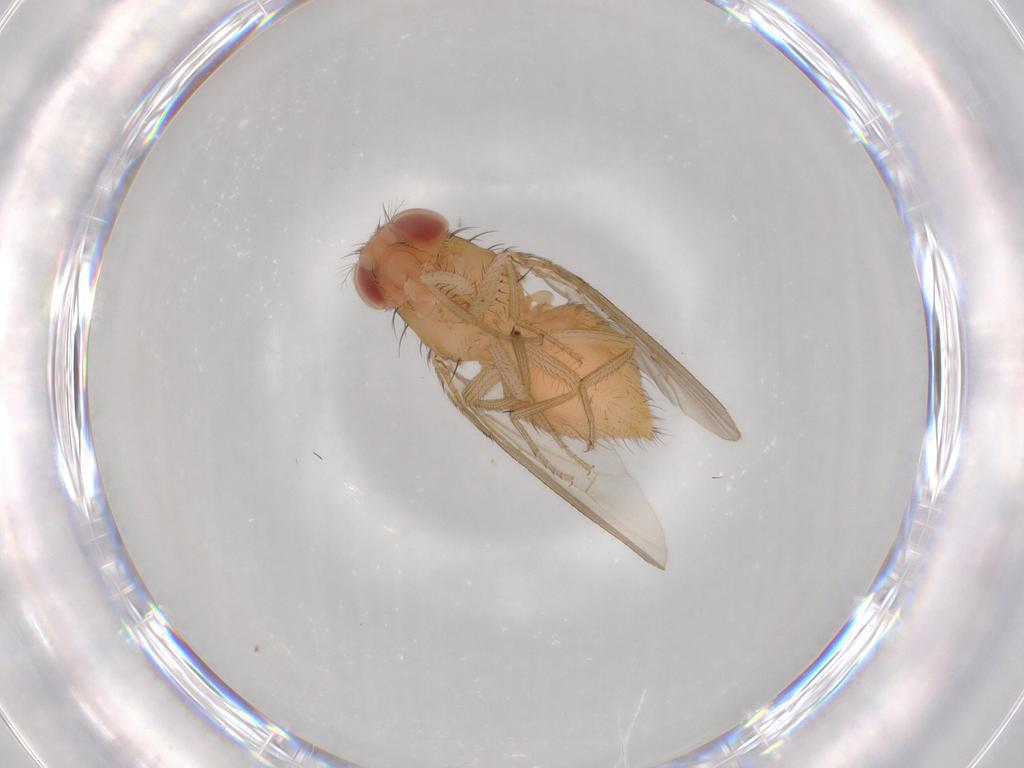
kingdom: Animalia
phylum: Arthropoda
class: Insecta
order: Diptera
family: Drosophilidae
